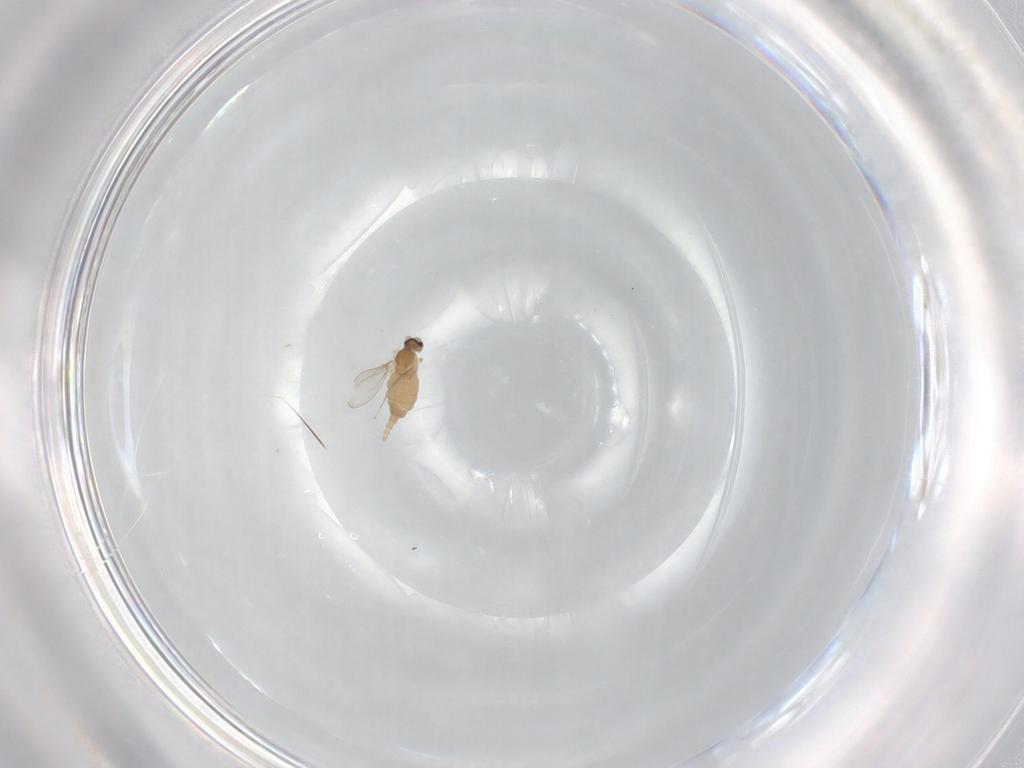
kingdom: Animalia
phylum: Arthropoda
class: Insecta
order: Diptera
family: Cecidomyiidae
